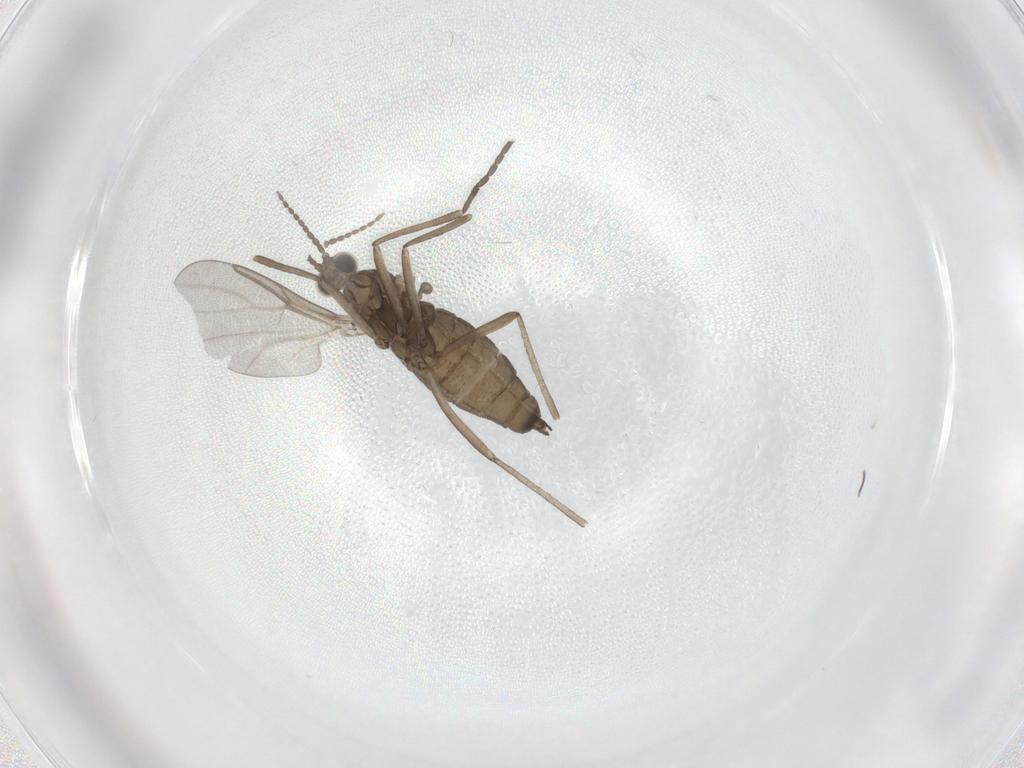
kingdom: Animalia
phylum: Arthropoda
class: Insecta
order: Diptera
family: Psychodidae
